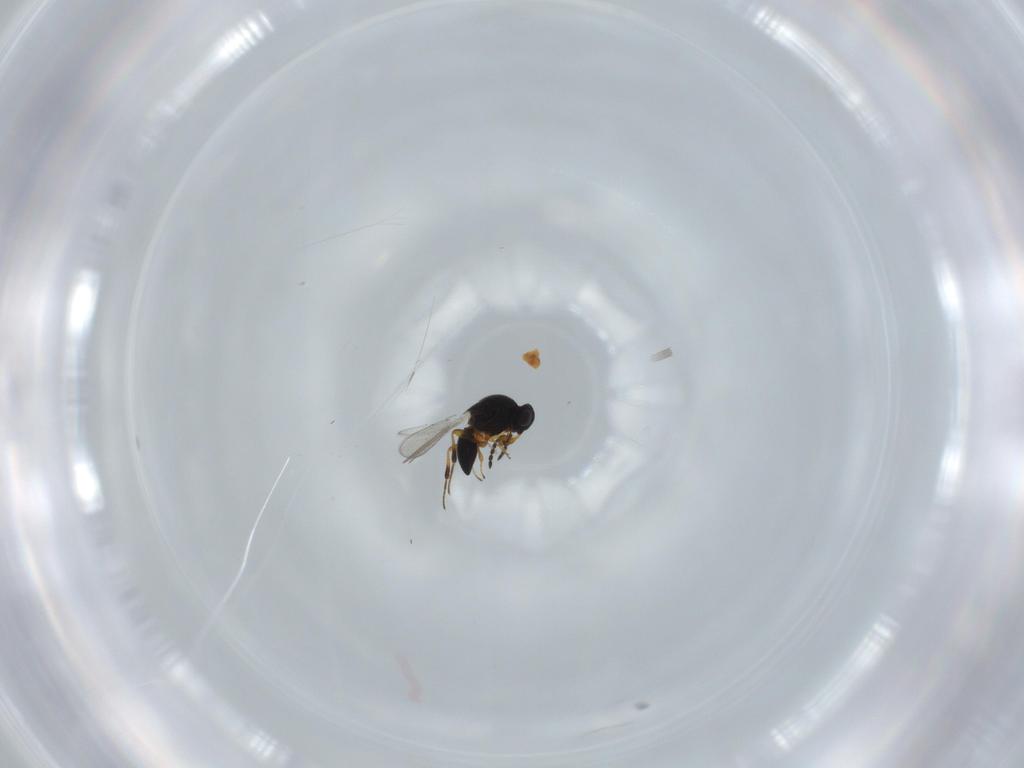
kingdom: Animalia
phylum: Arthropoda
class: Insecta
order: Hymenoptera
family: Platygastridae
